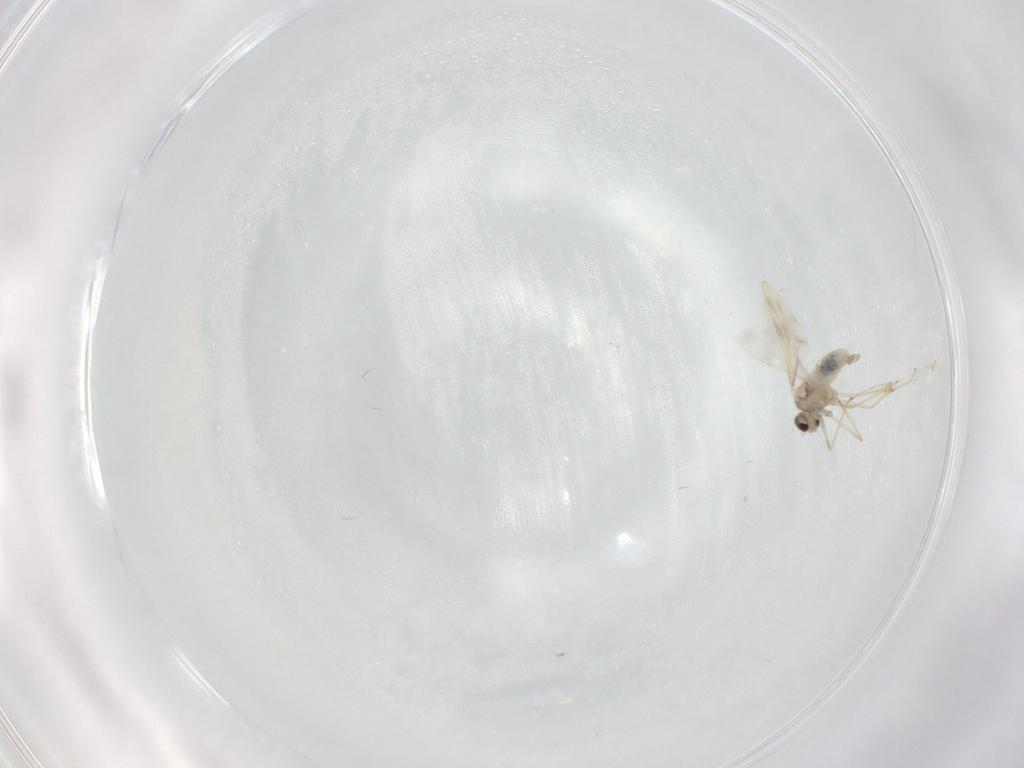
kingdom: Animalia
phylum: Arthropoda
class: Insecta
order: Diptera
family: Cecidomyiidae
